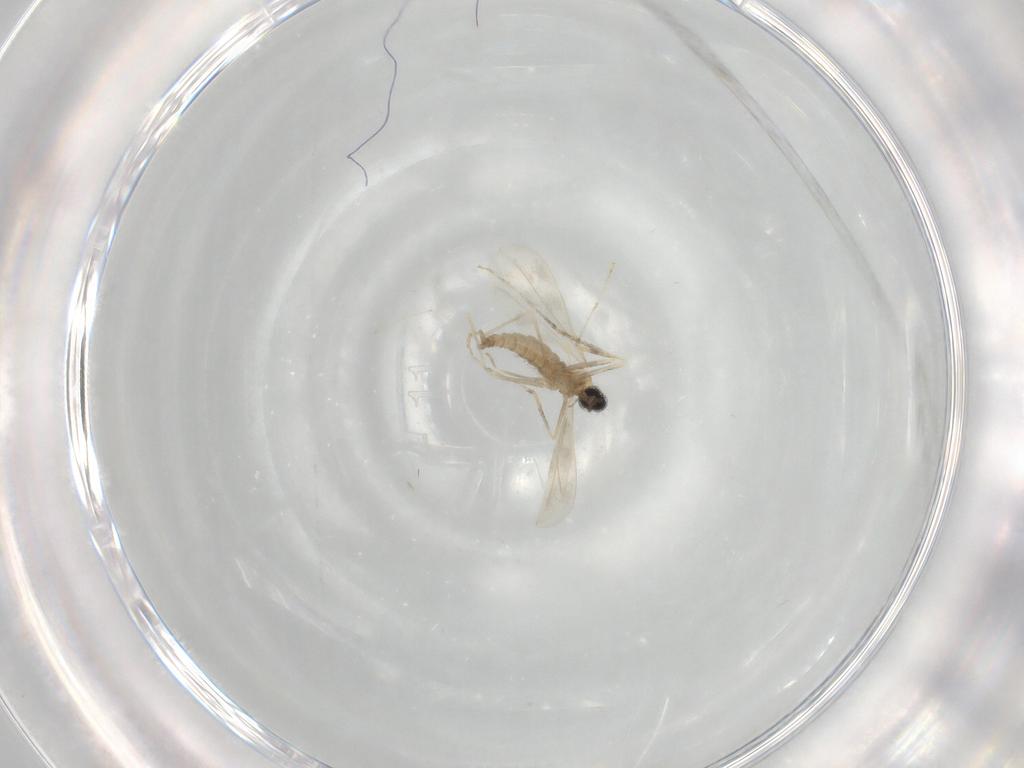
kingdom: Animalia
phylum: Arthropoda
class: Insecta
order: Diptera
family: Cecidomyiidae
